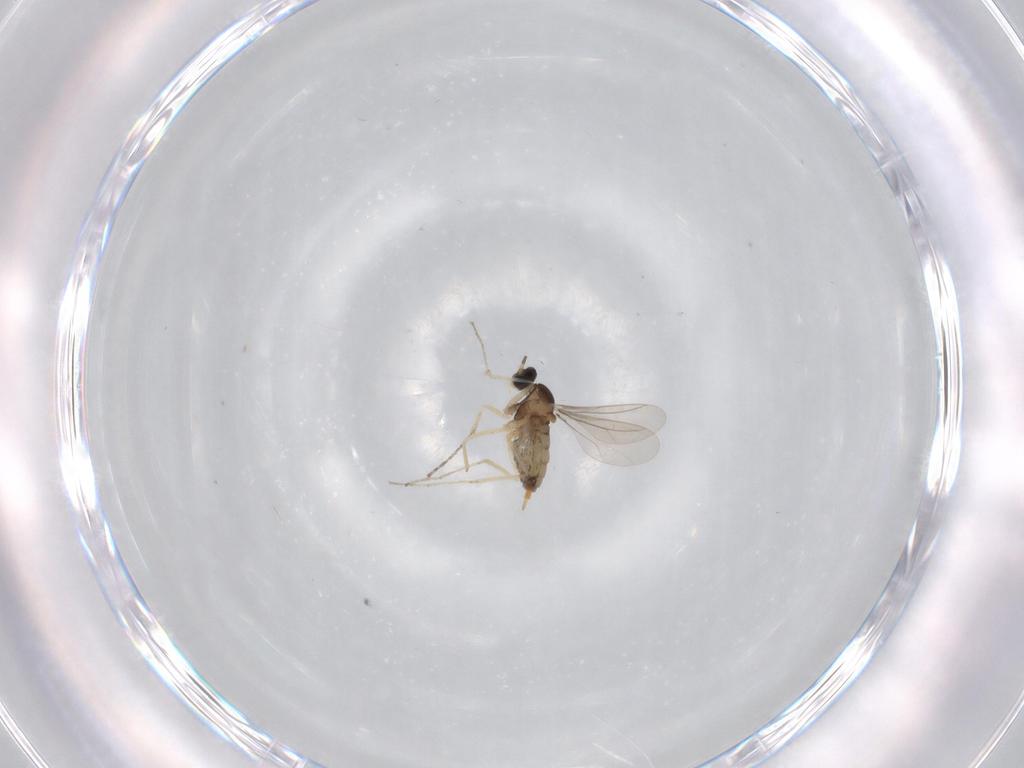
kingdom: Animalia
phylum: Arthropoda
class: Insecta
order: Diptera
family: Cecidomyiidae
